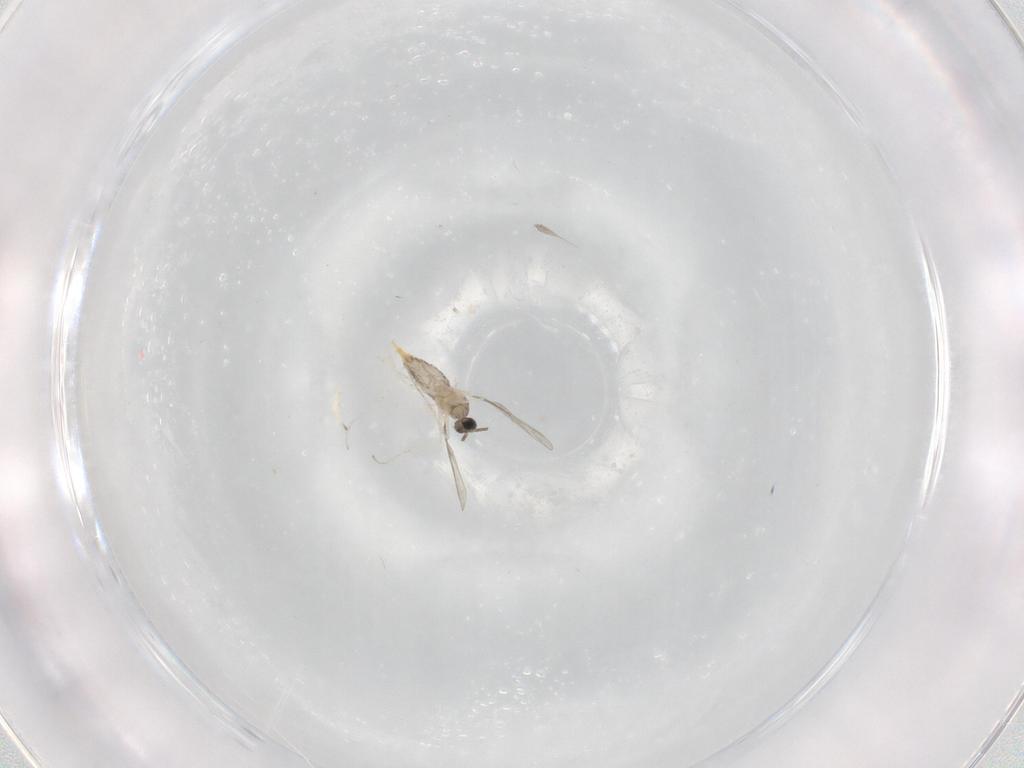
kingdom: Animalia
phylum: Arthropoda
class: Insecta
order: Diptera
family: Cecidomyiidae
